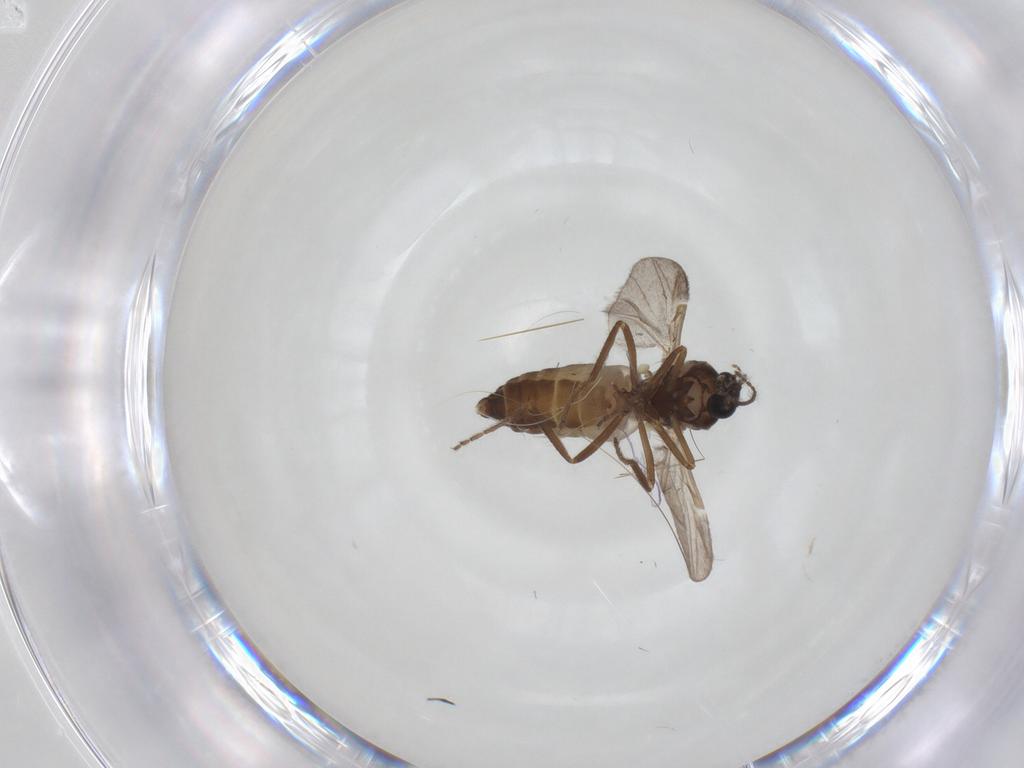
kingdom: Animalia
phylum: Arthropoda
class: Insecta
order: Diptera
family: Ceratopogonidae
